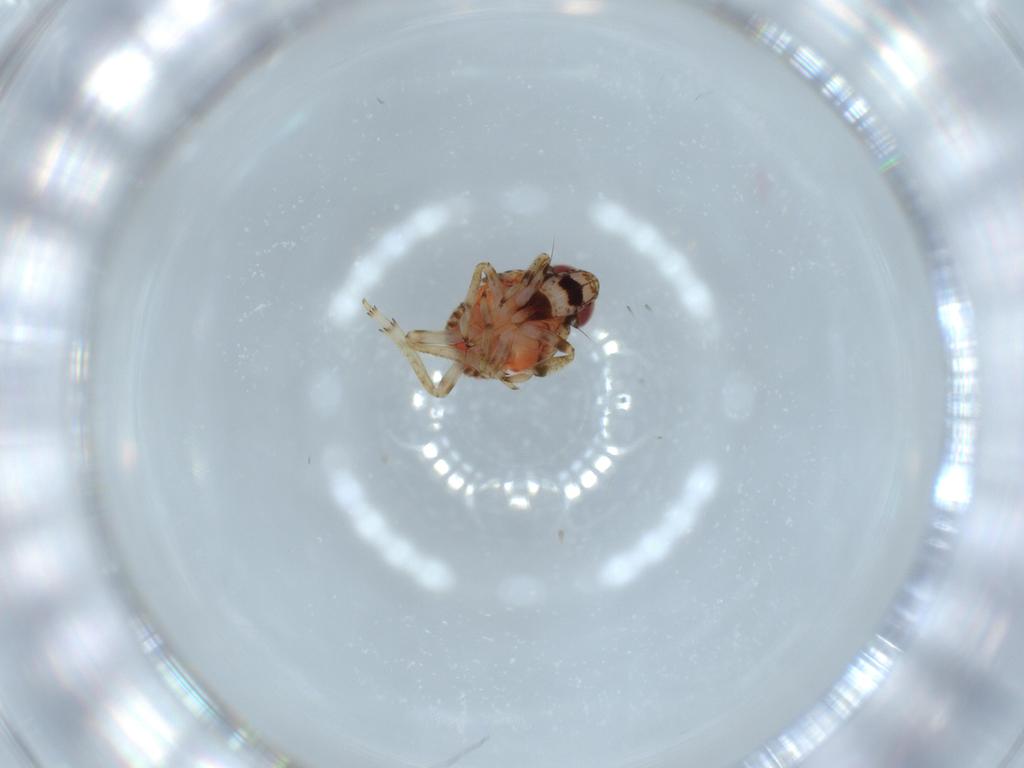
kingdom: Animalia
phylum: Arthropoda
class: Insecta
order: Hemiptera
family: Issidae
